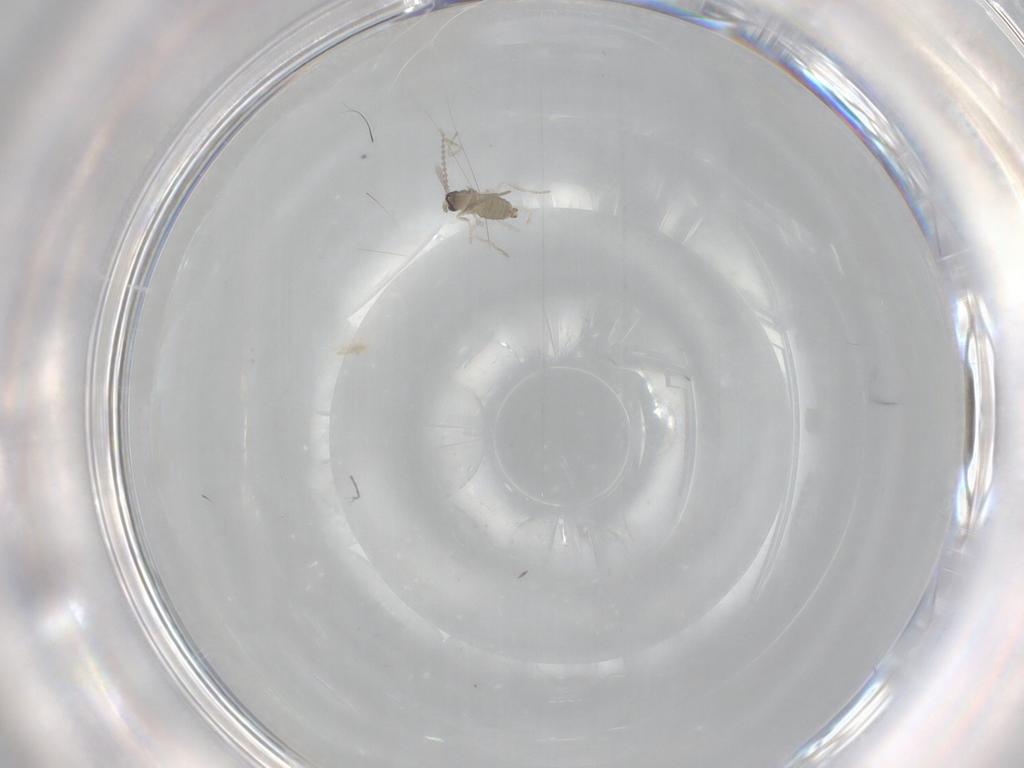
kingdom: Animalia
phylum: Arthropoda
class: Insecta
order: Diptera
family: Cecidomyiidae
